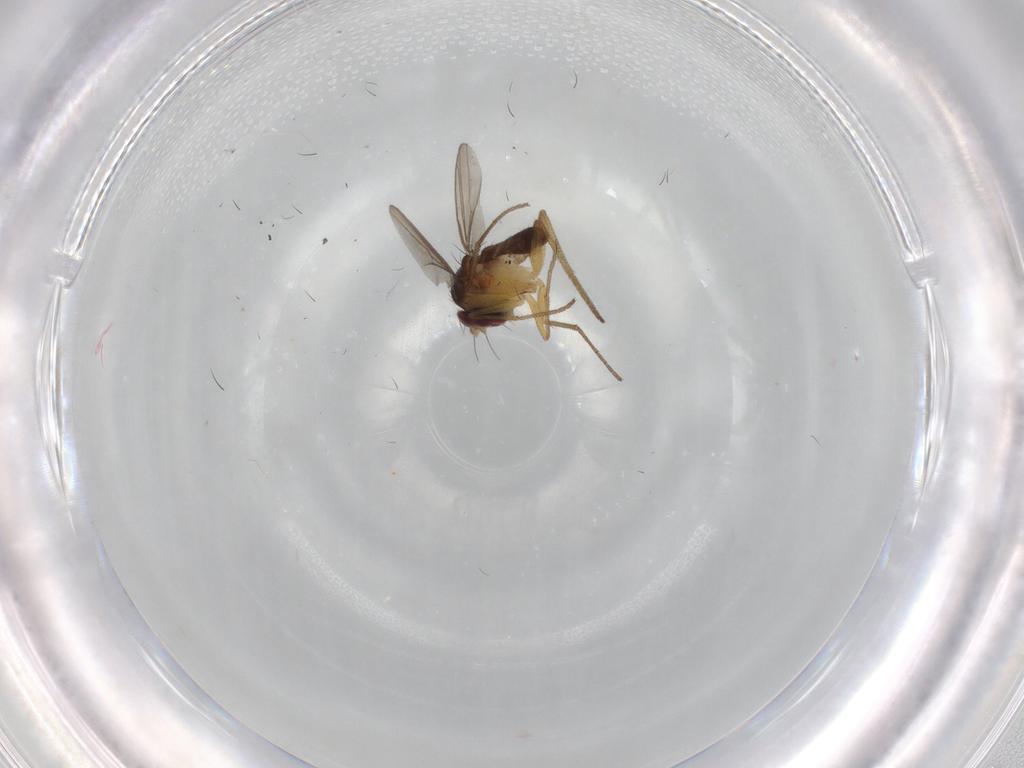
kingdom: Animalia
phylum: Arthropoda
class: Insecta
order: Diptera
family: Dolichopodidae
